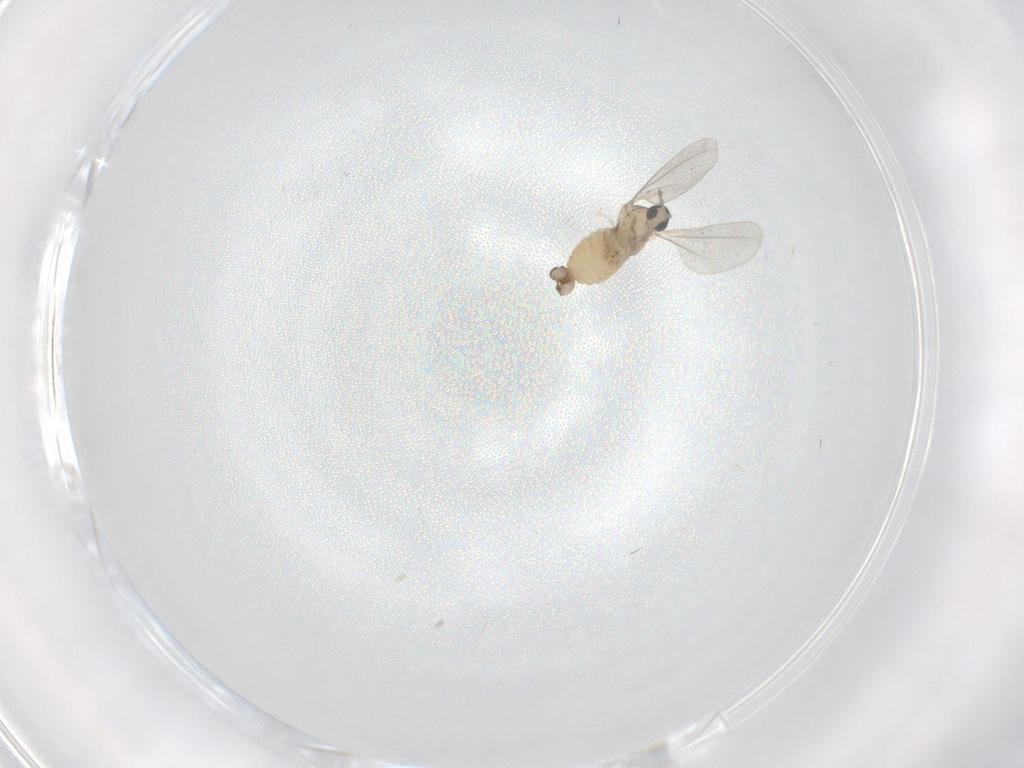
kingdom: Animalia
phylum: Arthropoda
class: Insecta
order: Diptera
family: Cecidomyiidae
